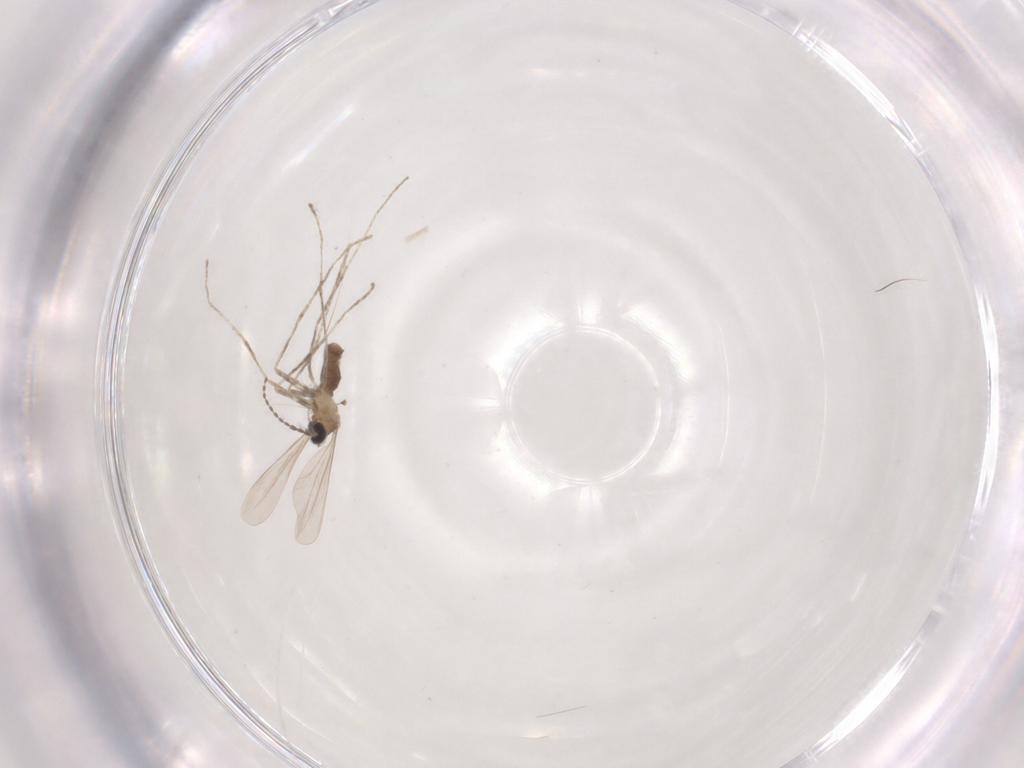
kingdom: Animalia
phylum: Arthropoda
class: Insecta
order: Diptera
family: Cecidomyiidae
